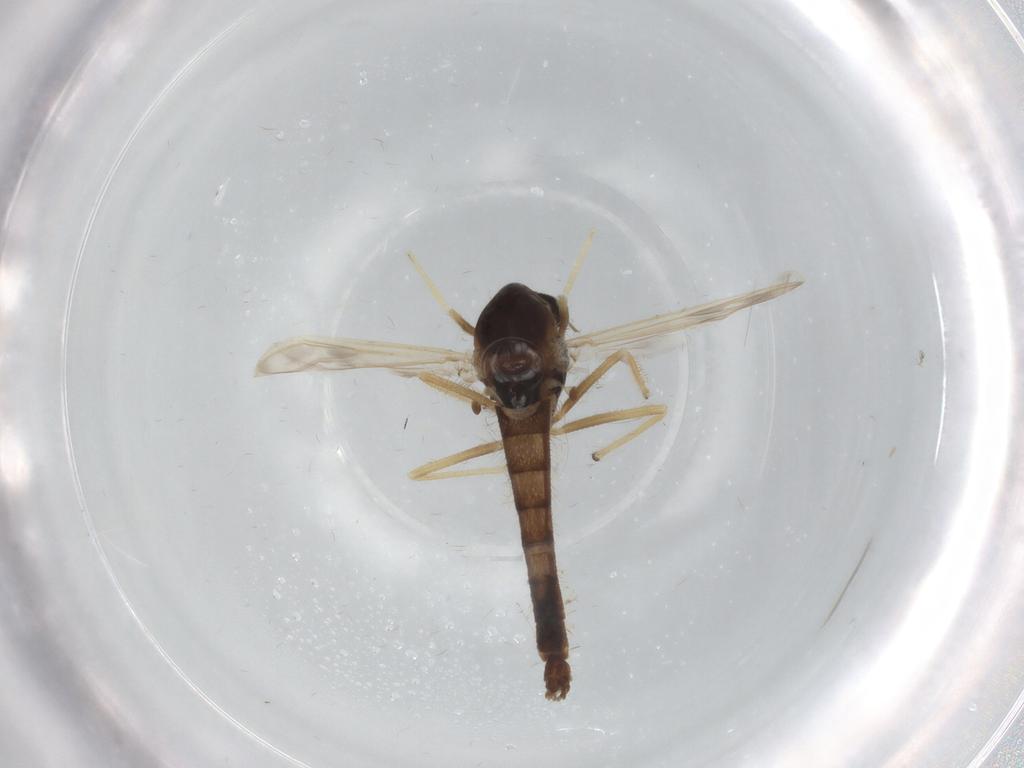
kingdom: Animalia
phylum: Arthropoda
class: Insecta
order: Diptera
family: Chironomidae
